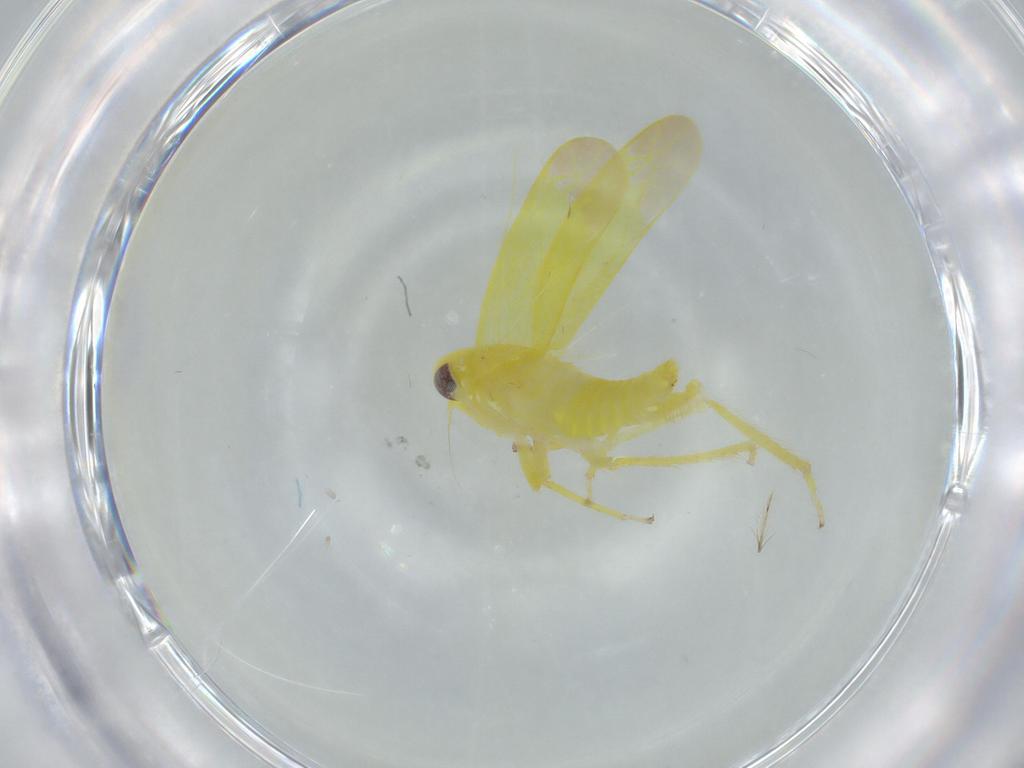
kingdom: Animalia
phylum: Arthropoda
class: Insecta
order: Hemiptera
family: Cicadellidae
